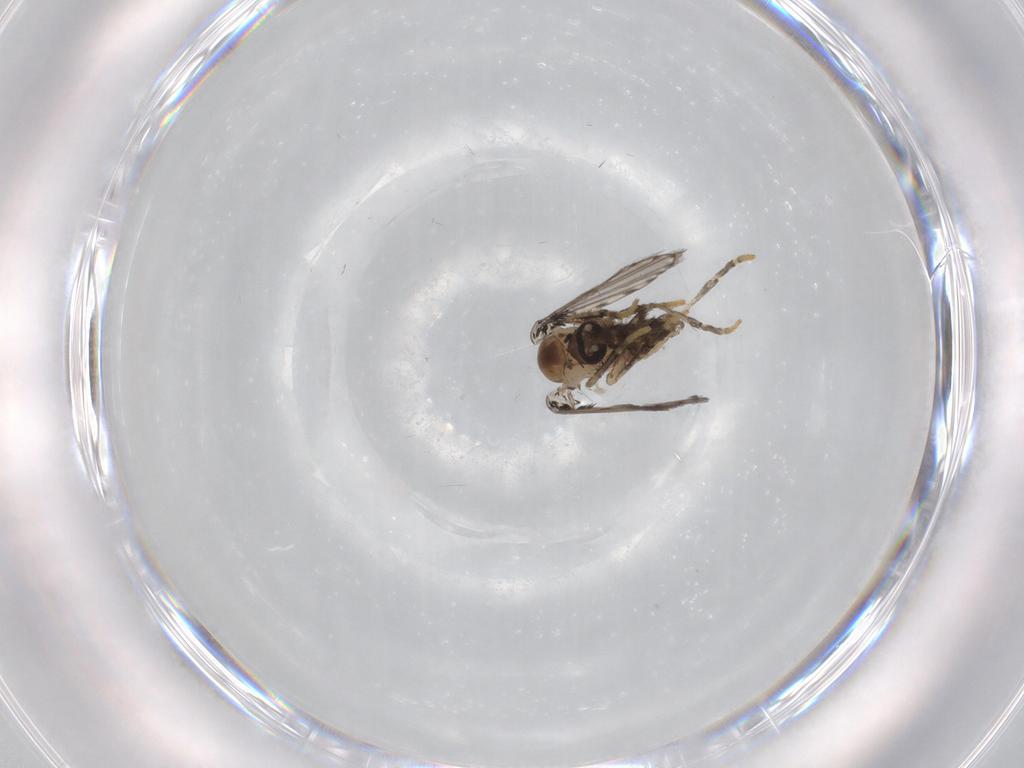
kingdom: Animalia
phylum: Arthropoda
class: Insecta
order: Diptera
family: Psychodidae
